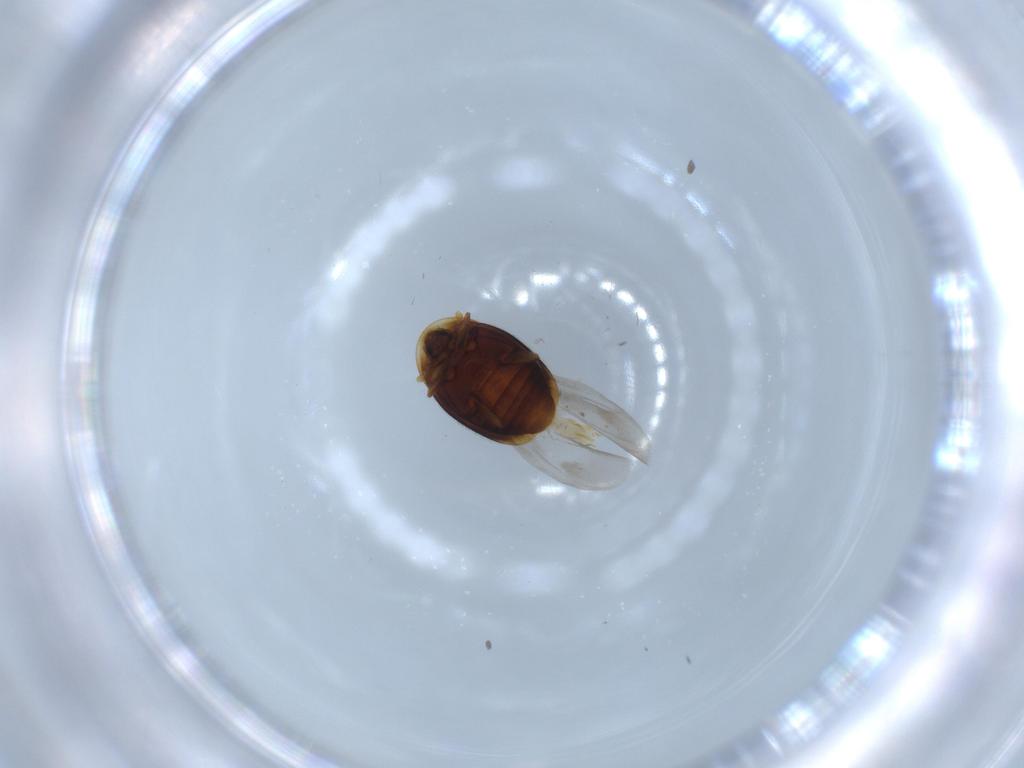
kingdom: Animalia
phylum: Arthropoda
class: Insecta
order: Coleoptera
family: Corylophidae
